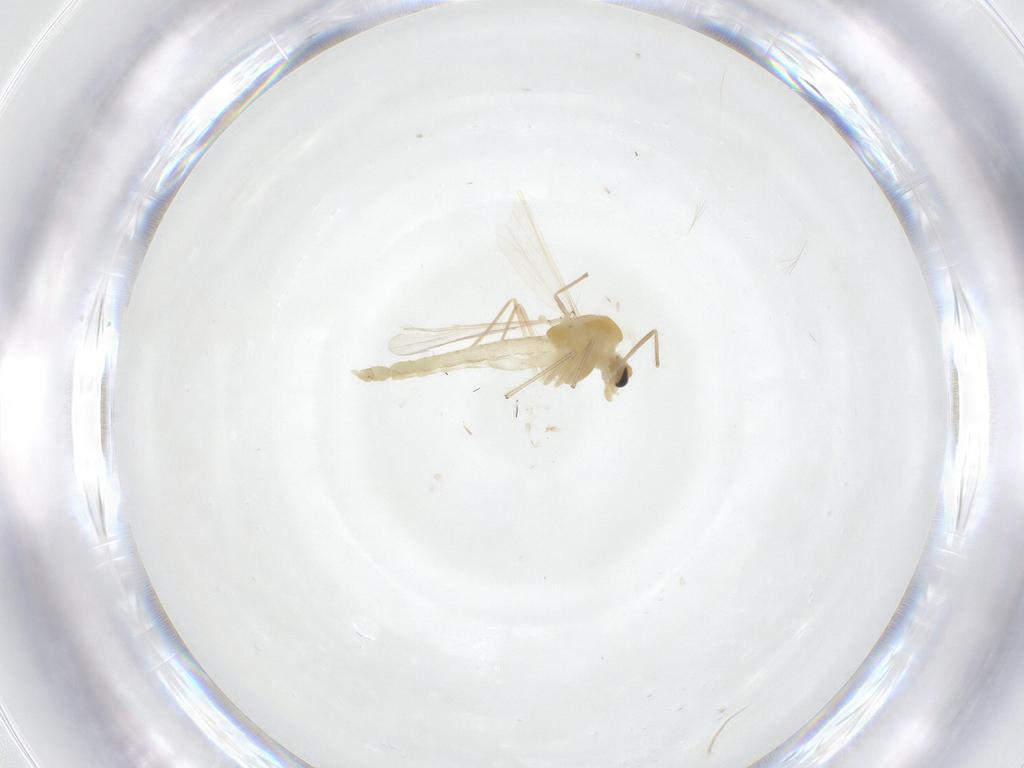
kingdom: Animalia
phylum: Arthropoda
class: Insecta
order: Diptera
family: Chironomidae
